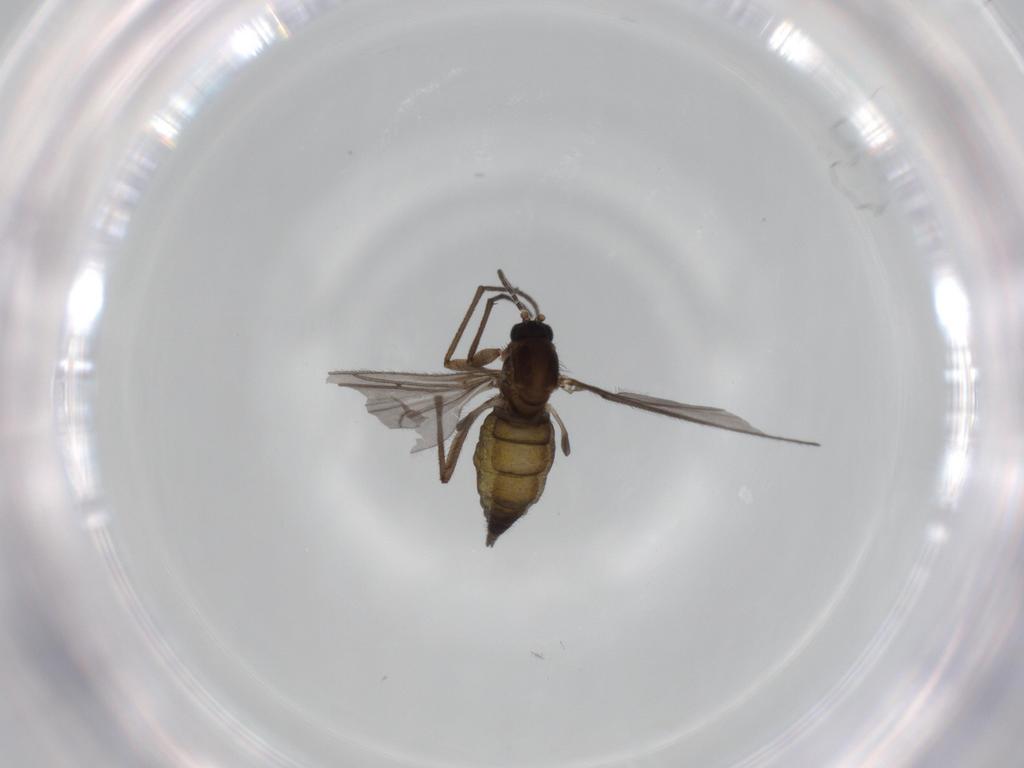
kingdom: Animalia
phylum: Arthropoda
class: Insecta
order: Diptera
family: Sciaridae
